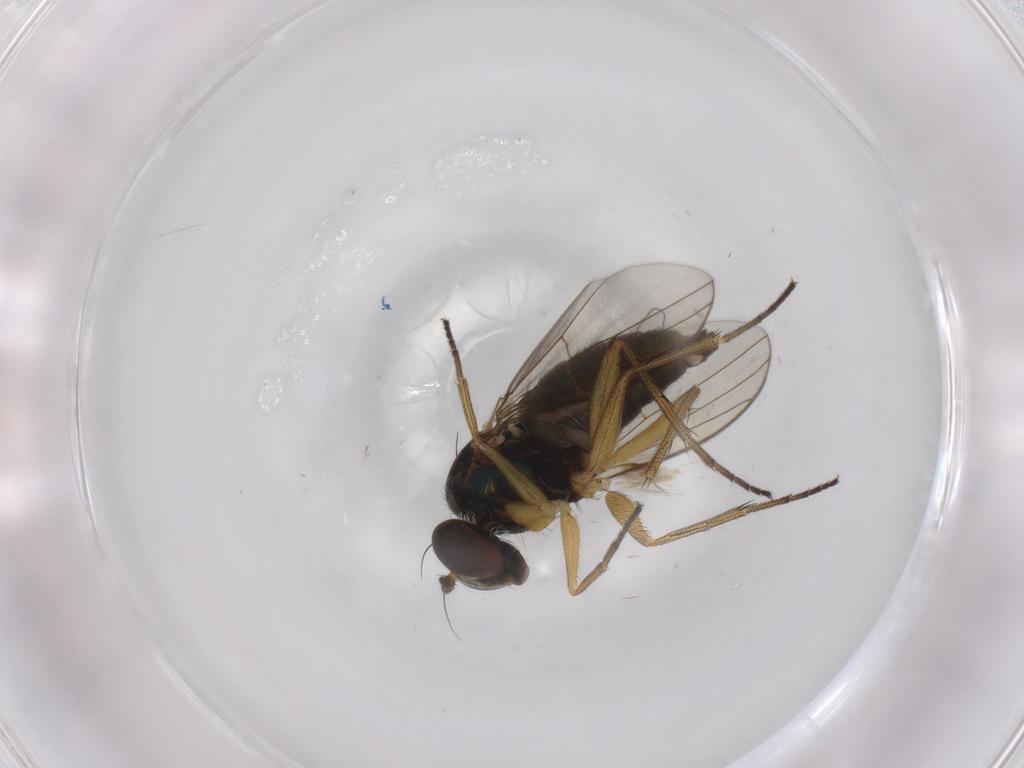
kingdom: Animalia
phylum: Arthropoda
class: Insecta
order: Diptera
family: Chironomidae
